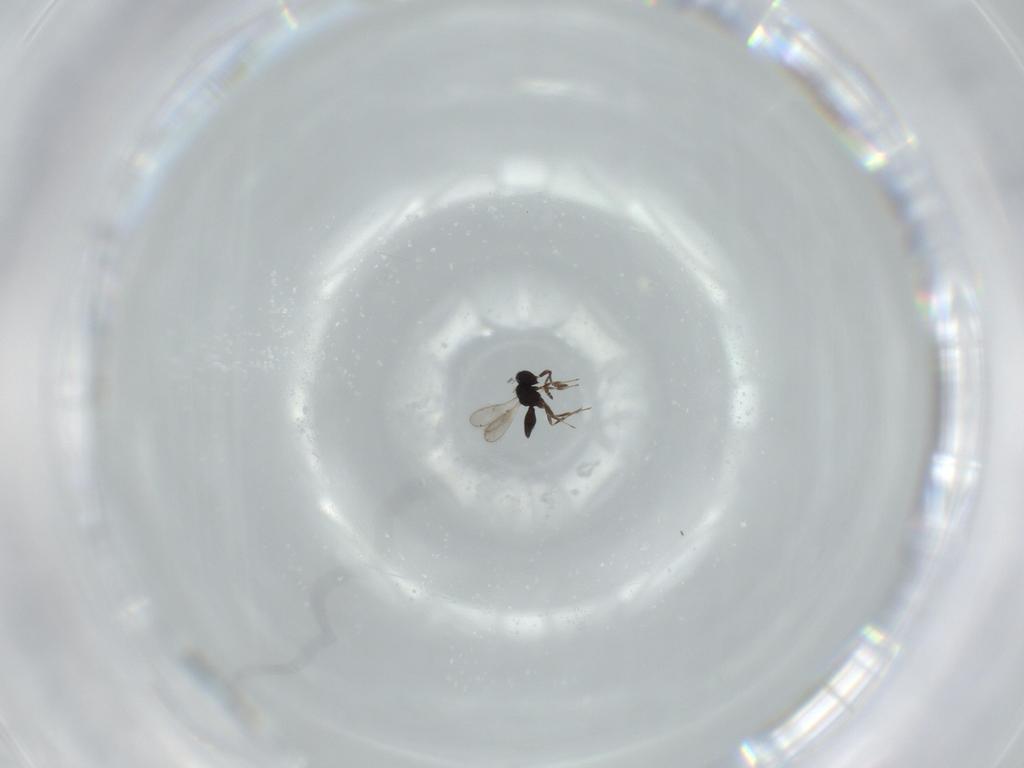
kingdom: Animalia
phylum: Arthropoda
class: Insecta
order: Hymenoptera
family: Scelionidae
